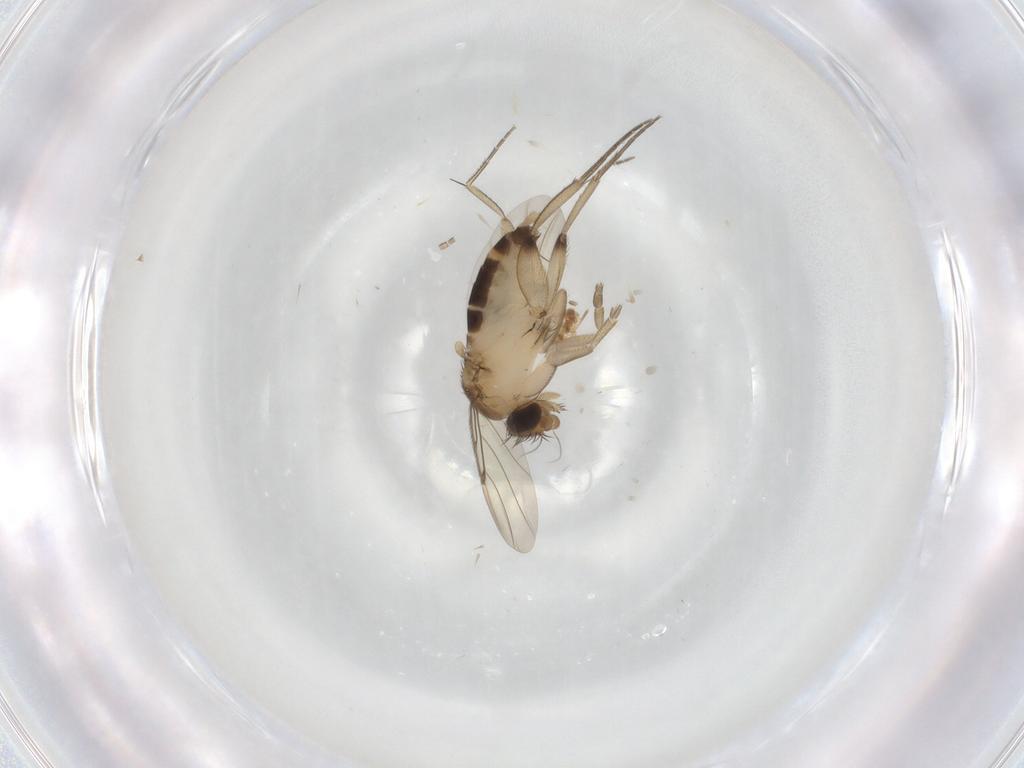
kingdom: Animalia
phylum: Arthropoda
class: Insecta
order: Diptera
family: Sciaridae
